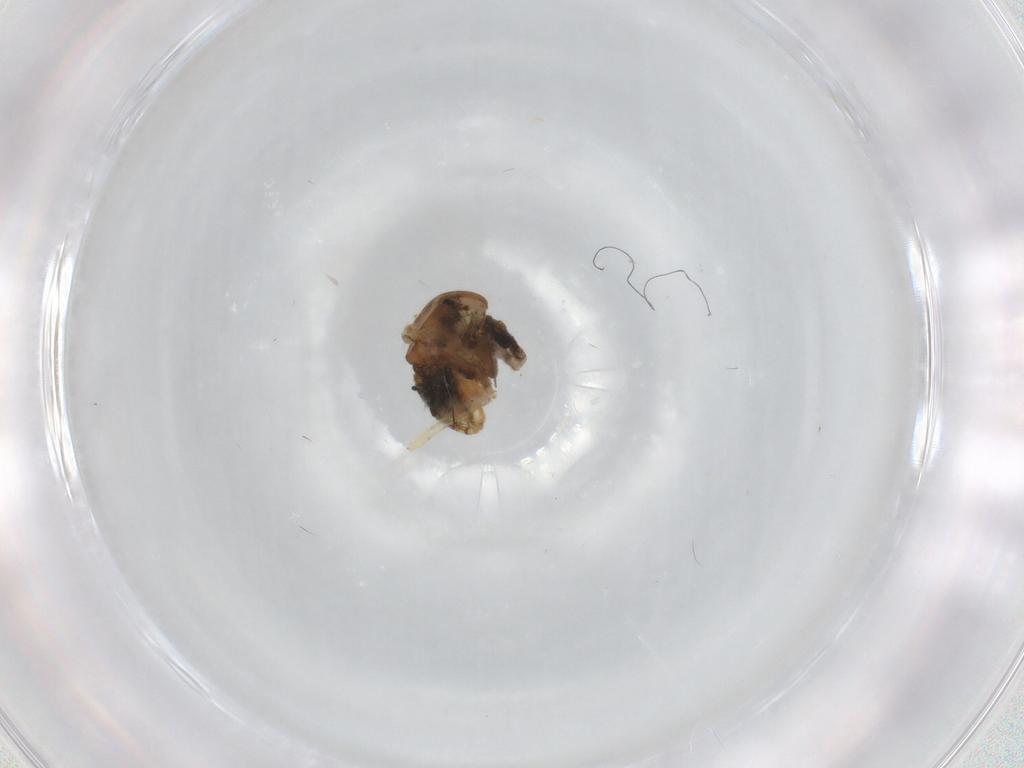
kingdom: Animalia
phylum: Arthropoda
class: Insecta
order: Diptera
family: Chironomidae
